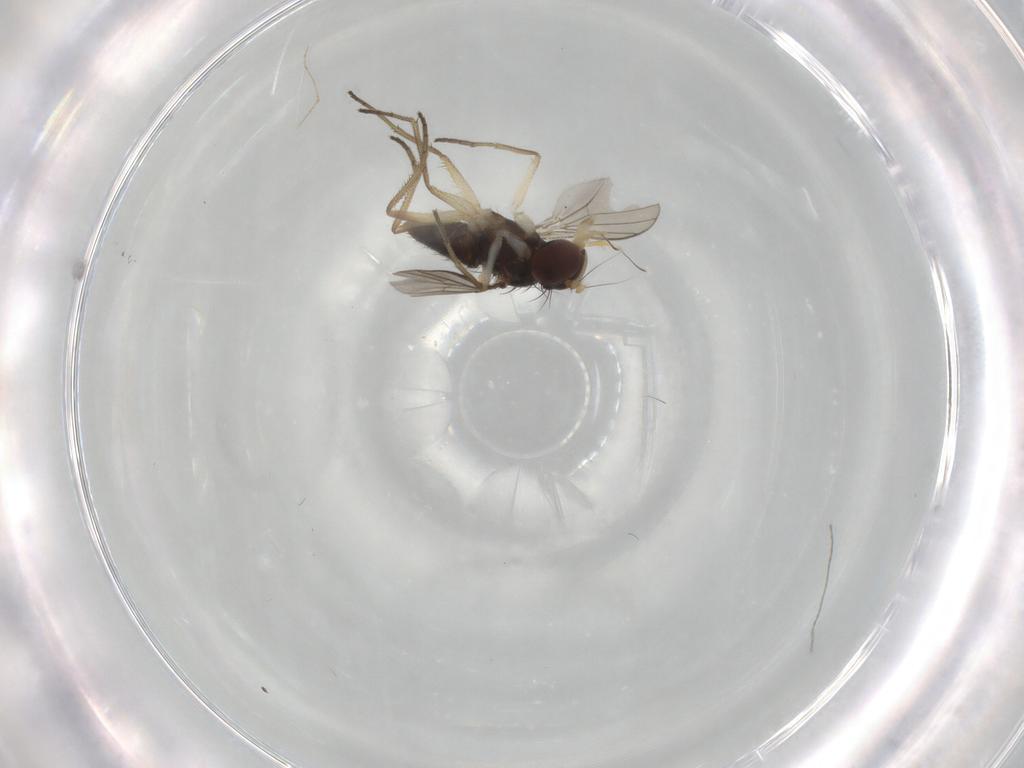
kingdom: Animalia
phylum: Arthropoda
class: Insecta
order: Diptera
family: Dolichopodidae
